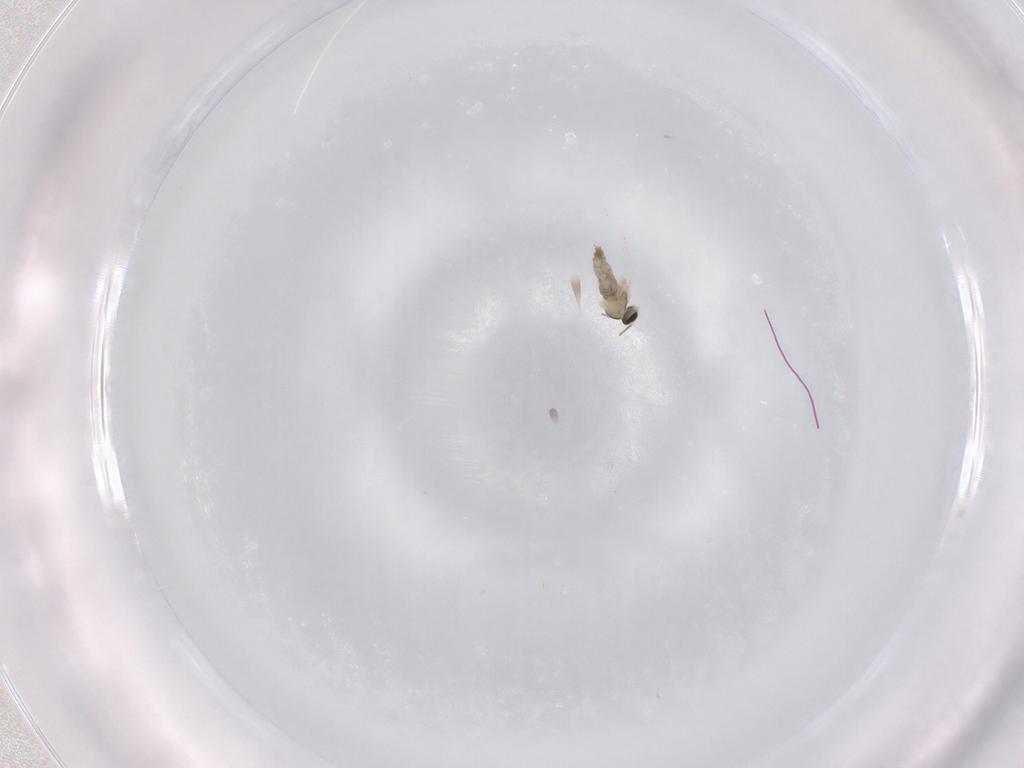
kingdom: Animalia
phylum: Arthropoda
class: Insecta
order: Diptera
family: Cecidomyiidae
